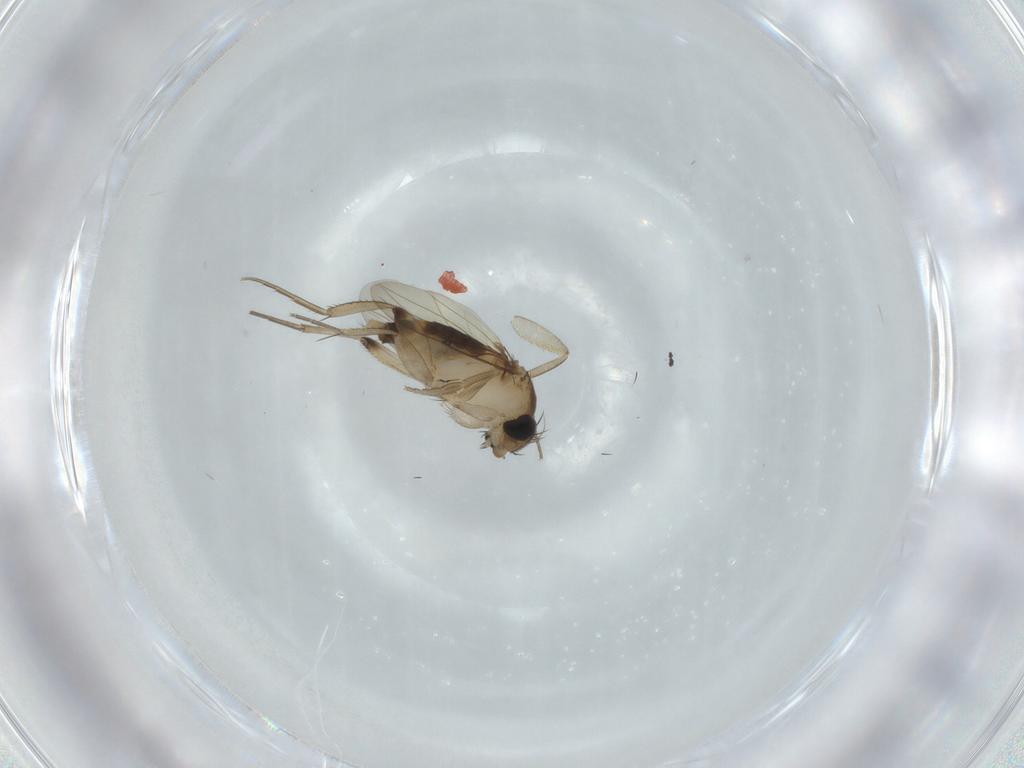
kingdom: Animalia
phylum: Arthropoda
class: Insecta
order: Diptera
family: Phoridae
